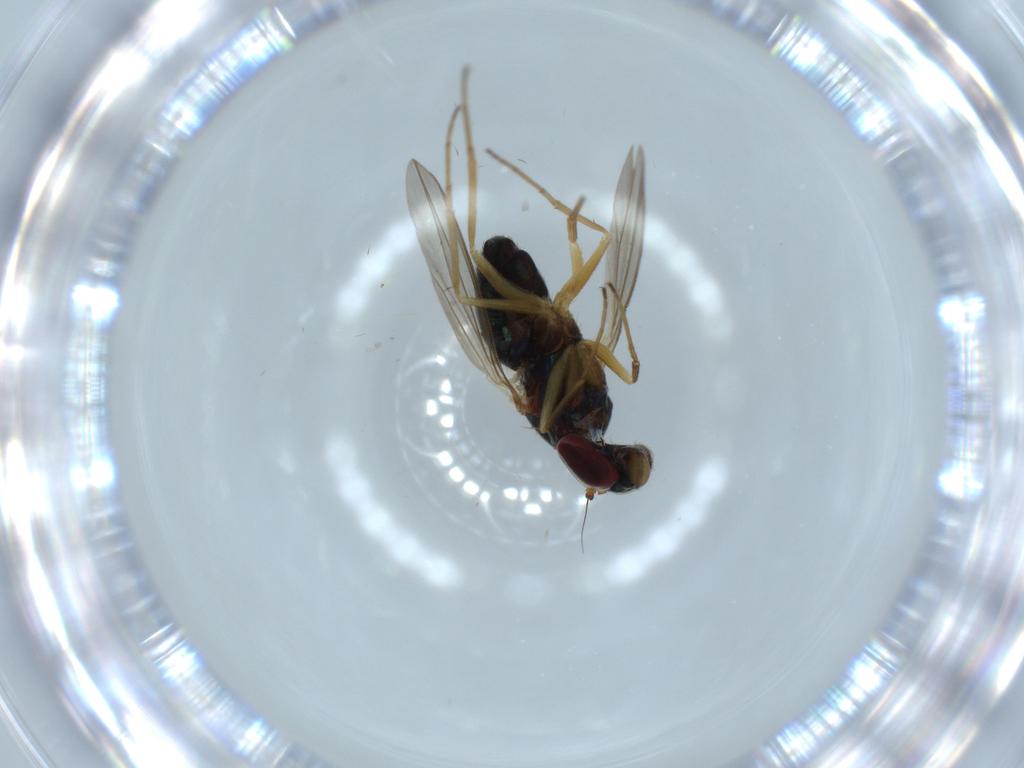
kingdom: Animalia
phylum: Arthropoda
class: Insecta
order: Diptera
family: Dolichopodidae
